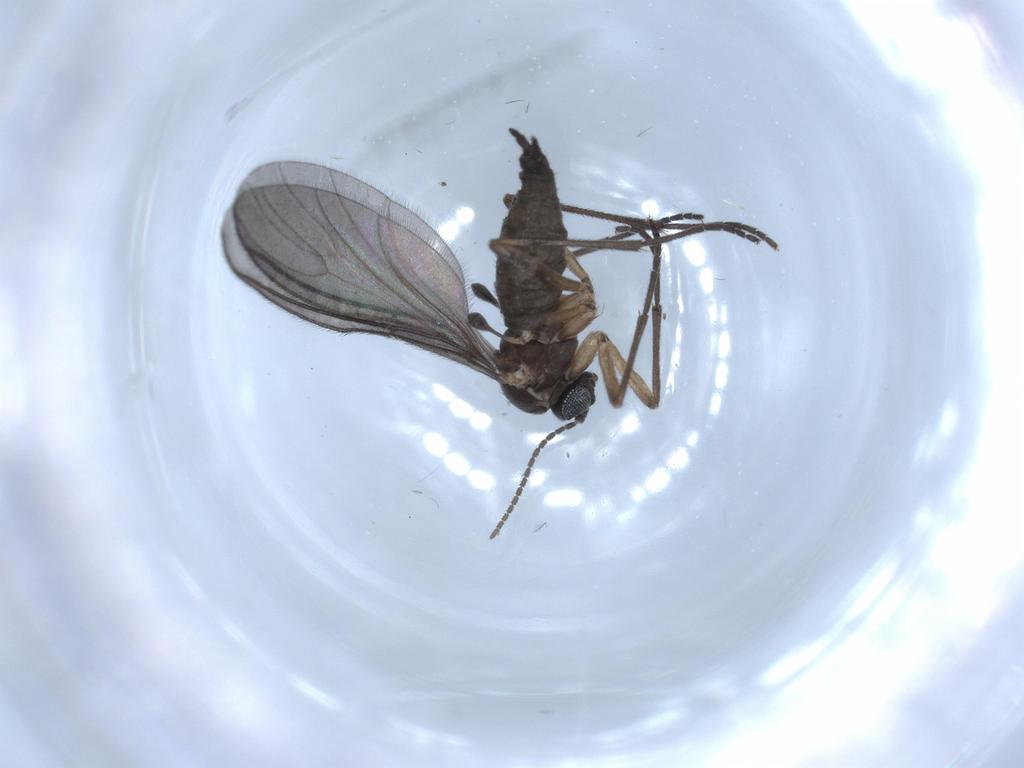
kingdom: Animalia
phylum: Arthropoda
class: Insecta
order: Diptera
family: Sciaridae
